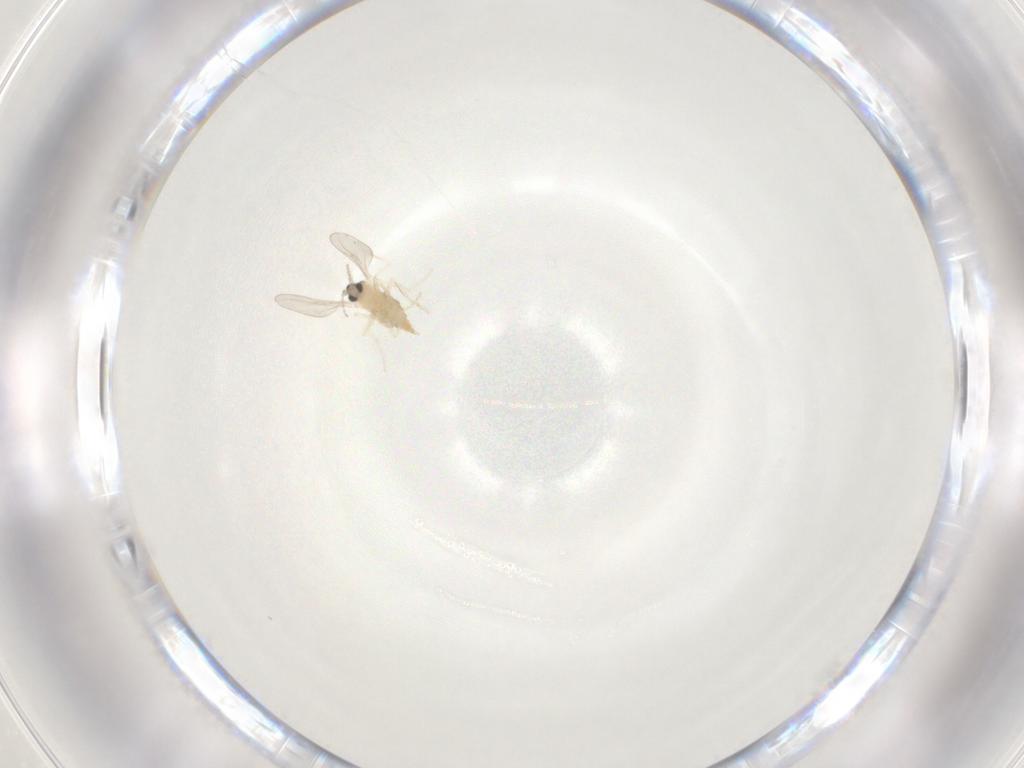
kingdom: Animalia
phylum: Arthropoda
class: Insecta
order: Diptera
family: Cecidomyiidae
